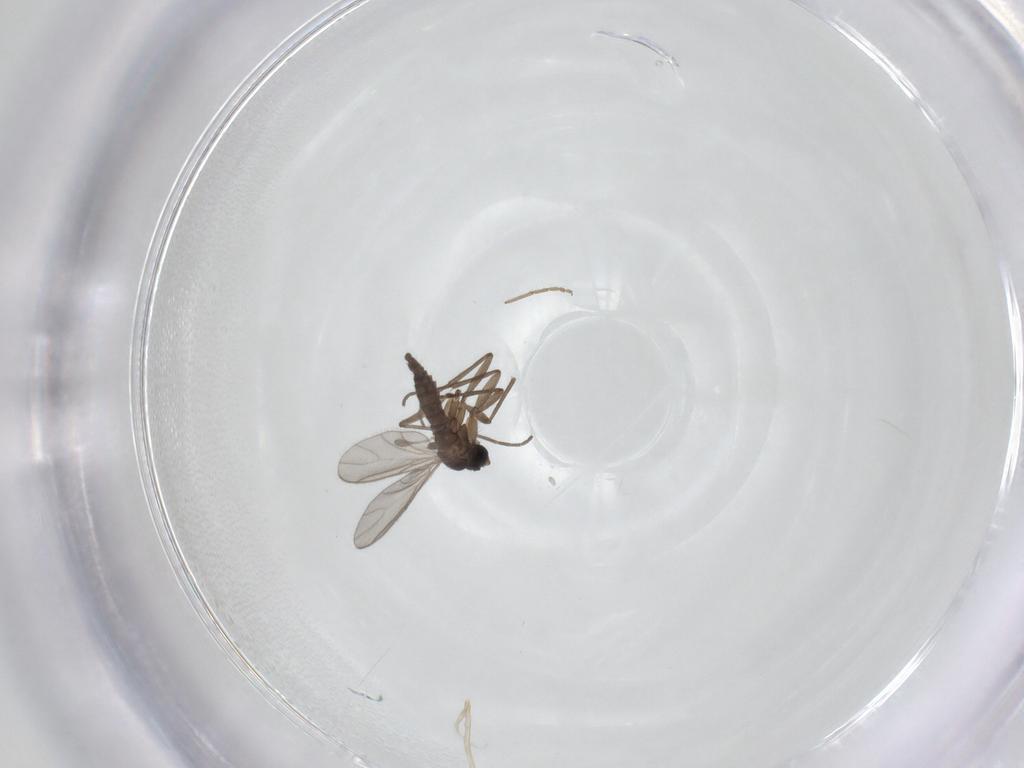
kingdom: Animalia
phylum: Arthropoda
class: Insecta
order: Diptera
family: Chironomidae
